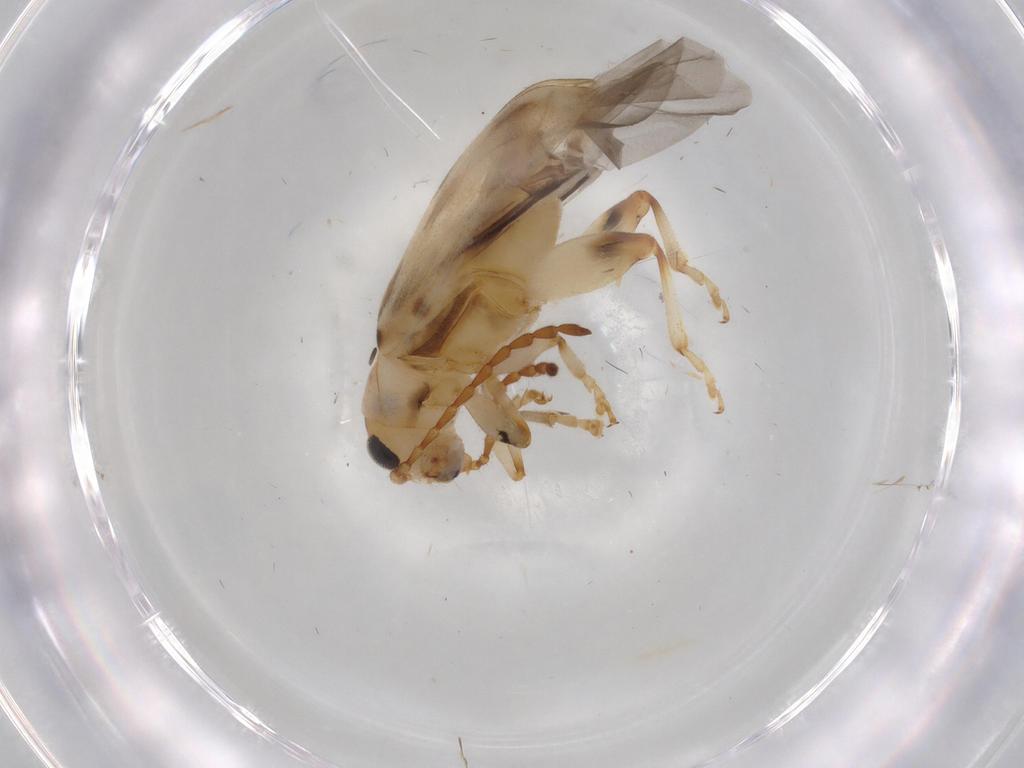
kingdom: Animalia
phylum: Arthropoda
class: Insecta
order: Coleoptera
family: Chrysomelidae
